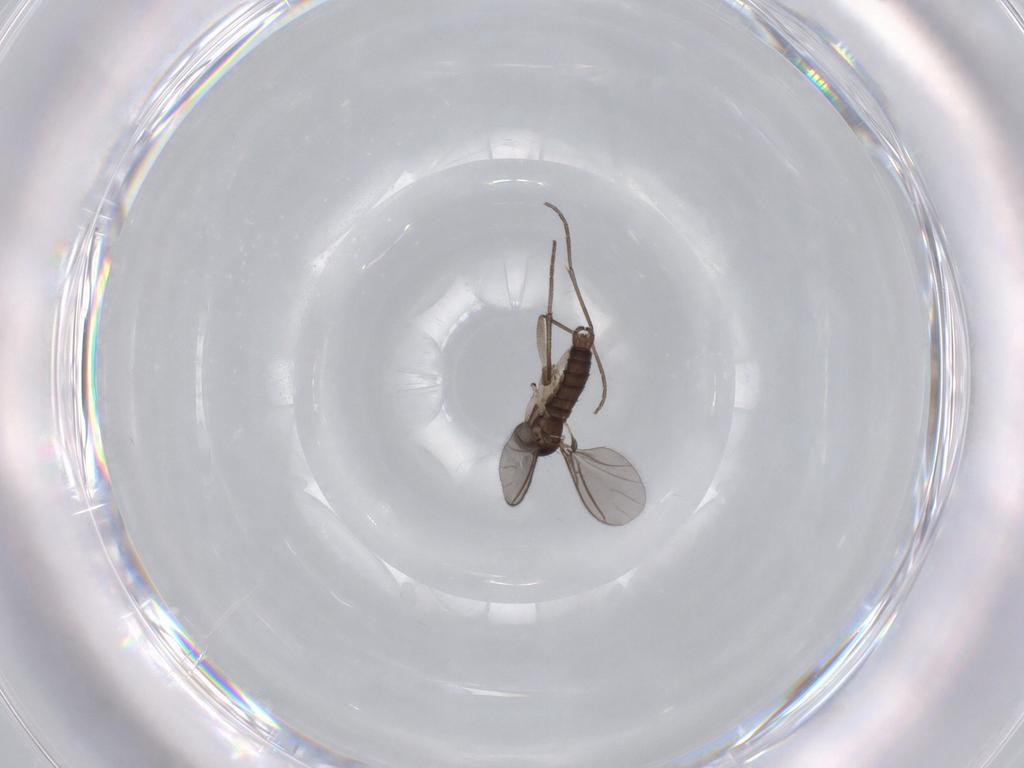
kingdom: Animalia
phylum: Arthropoda
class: Insecta
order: Diptera
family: Sciaridae
